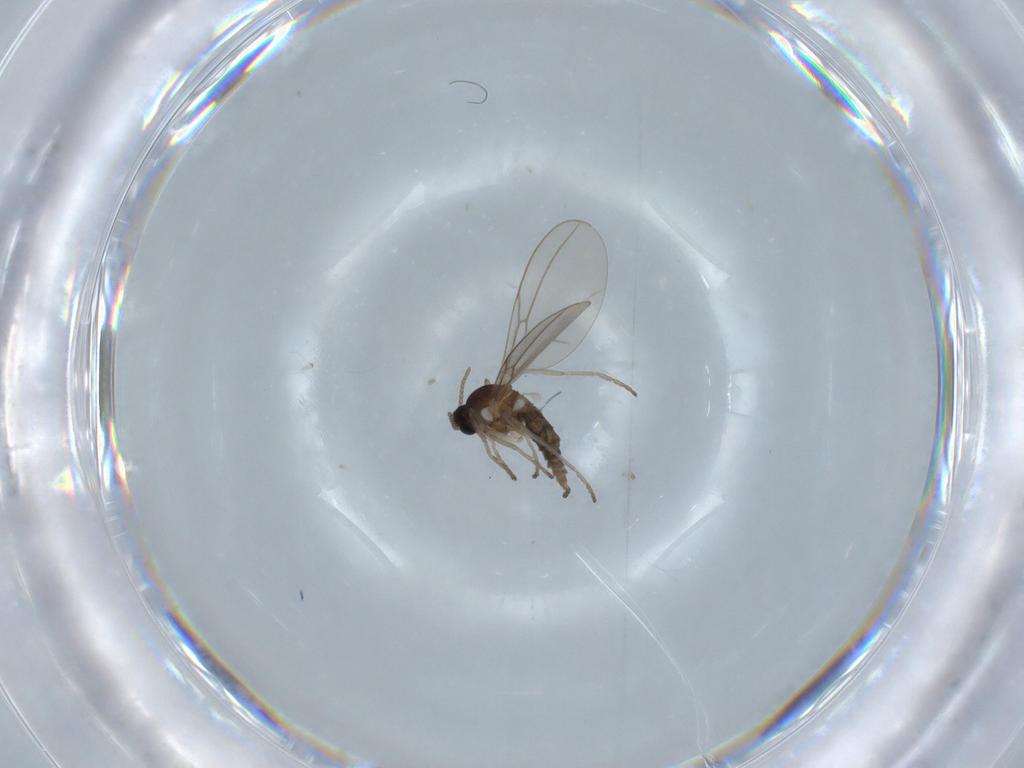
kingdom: Animalia
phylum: Arthropoda
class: Insecta
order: Diptera
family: Cecidomyiidae
